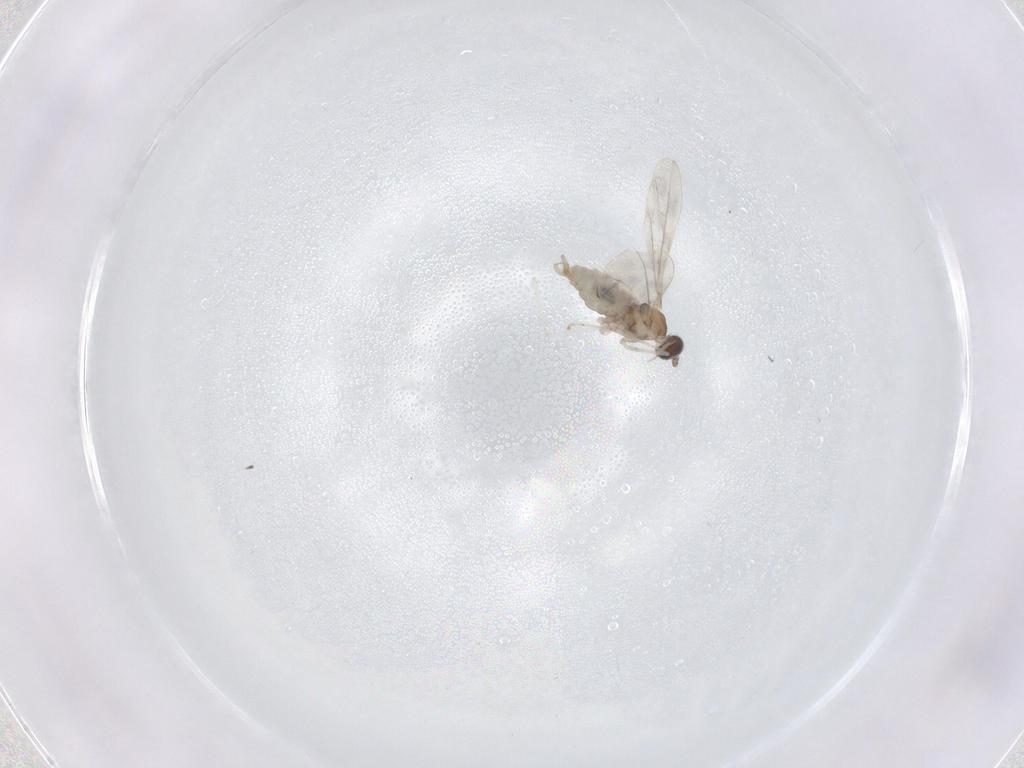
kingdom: Animalia
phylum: Arthropoda
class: Insecta
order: Diptera
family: Cecidomyiidae
